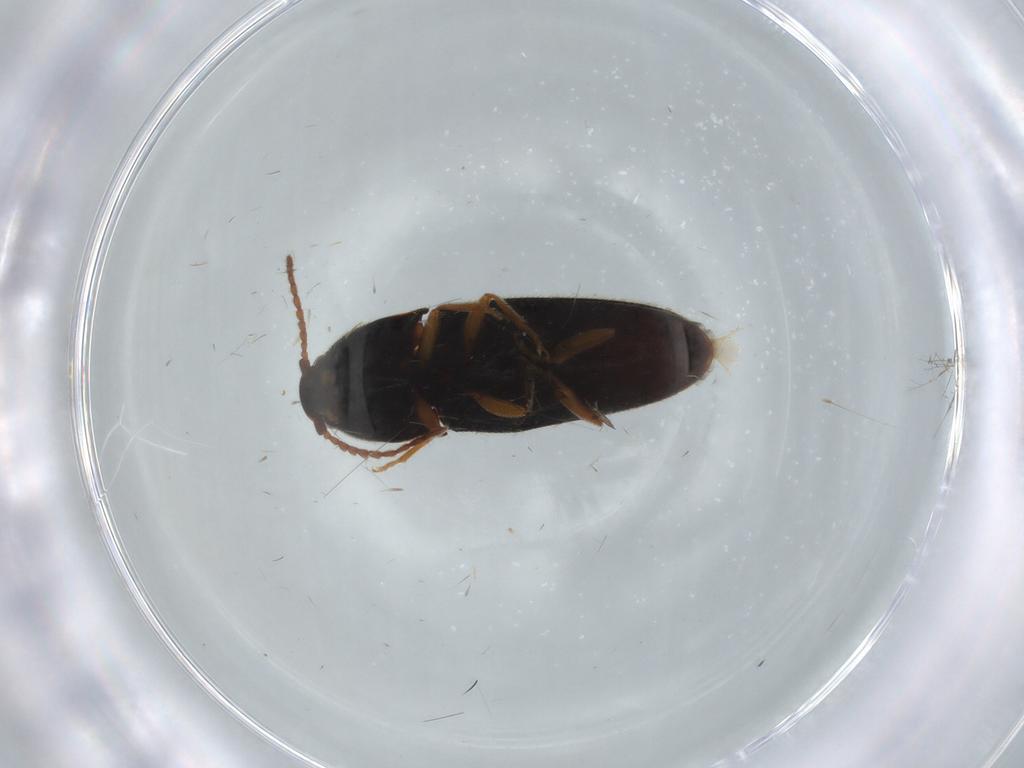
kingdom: Animalia
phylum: Arthropoda
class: Insecta
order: Coleoptera
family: Elateridae
